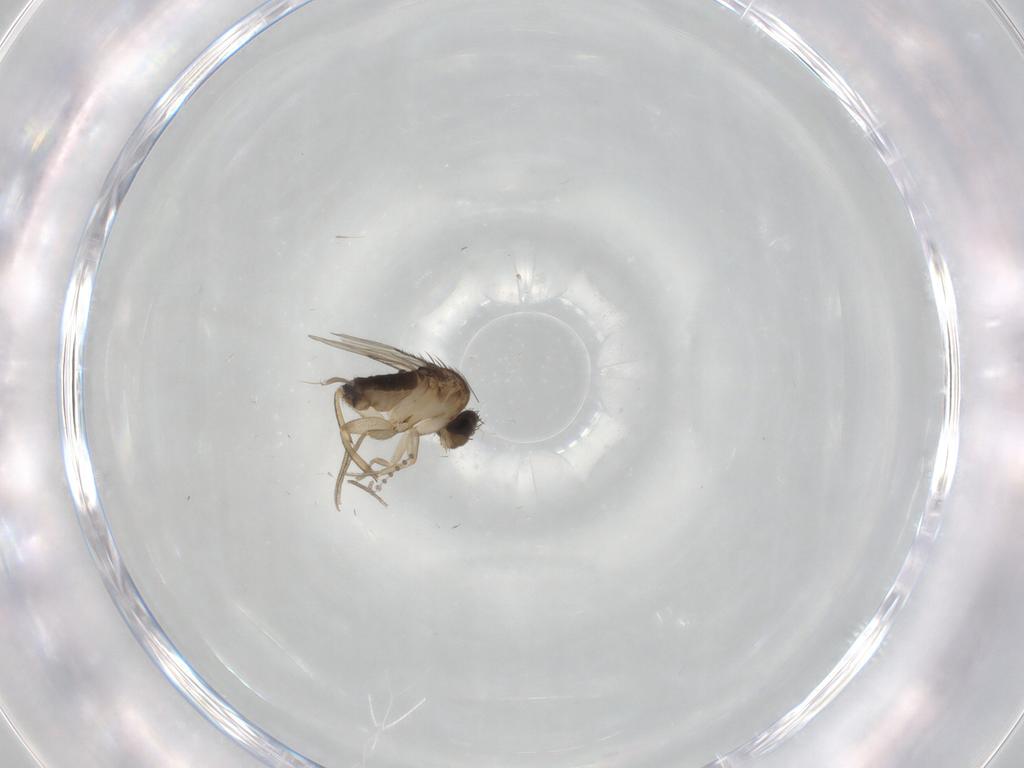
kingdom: Animalia
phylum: Arthropoda
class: Insecta
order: Diptera
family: Psychodidae
